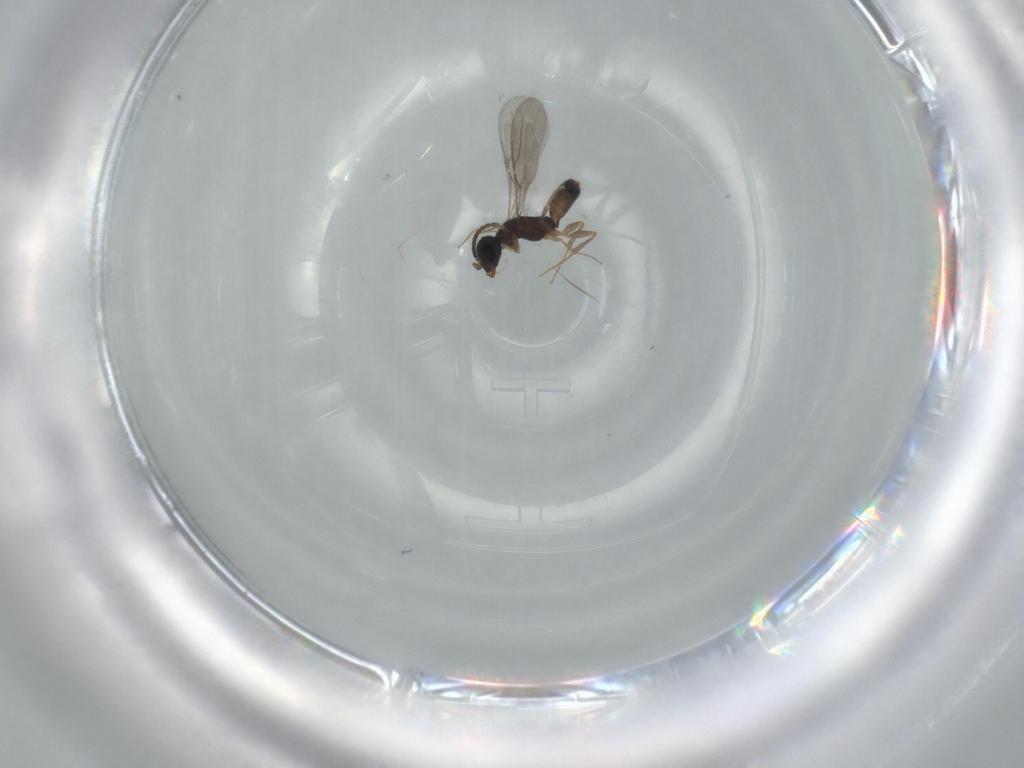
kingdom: Animalia
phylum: Arthropoda
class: Insecta
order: Hymenoptera
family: Bethylidae
